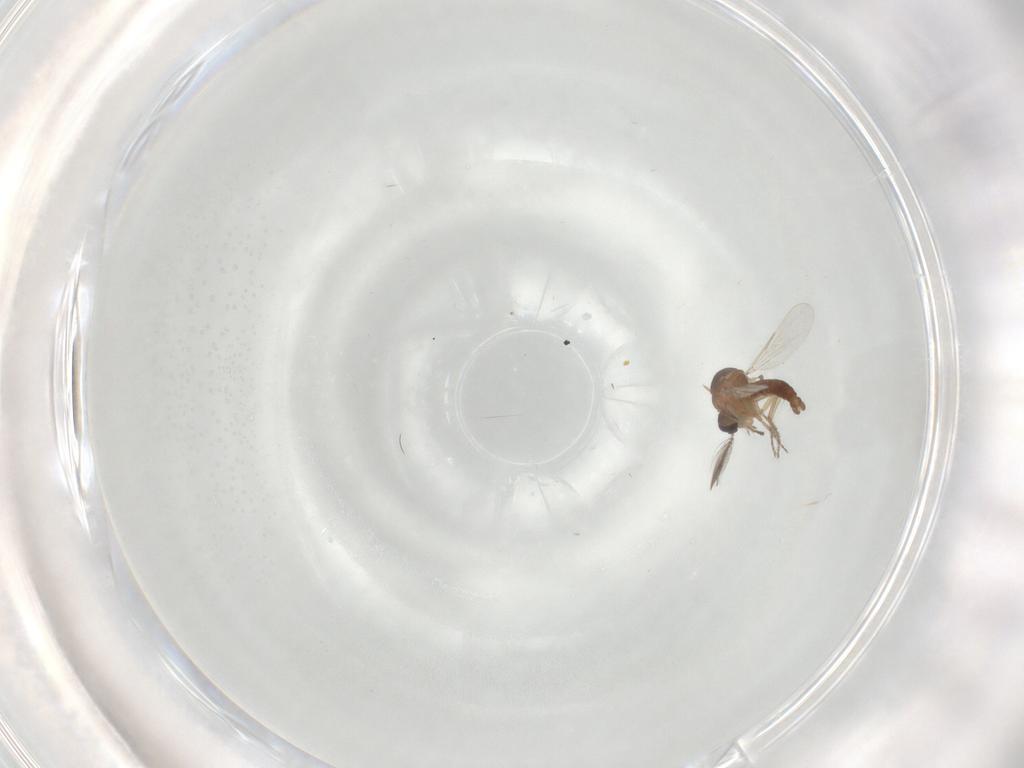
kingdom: Animalia
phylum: Arthropoda
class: Insecta
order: Diptera
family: Ceratopogonidae
